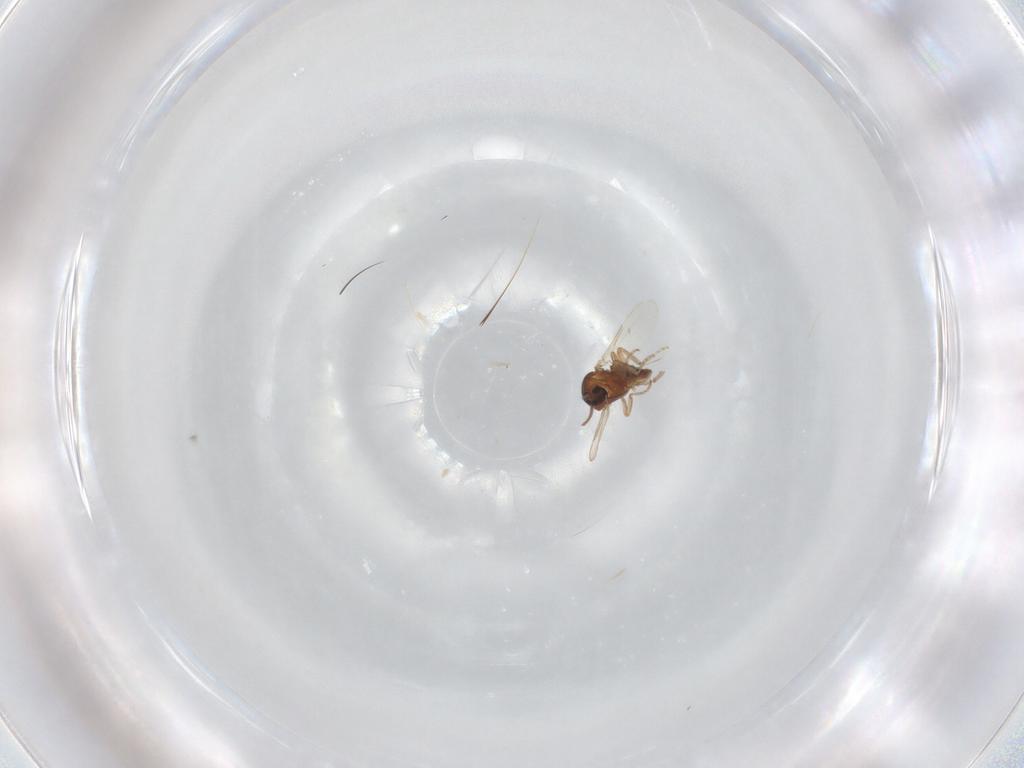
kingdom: Animalia
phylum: Arthropoda
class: Insecta
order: Diptera
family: Ceratopogonidae
